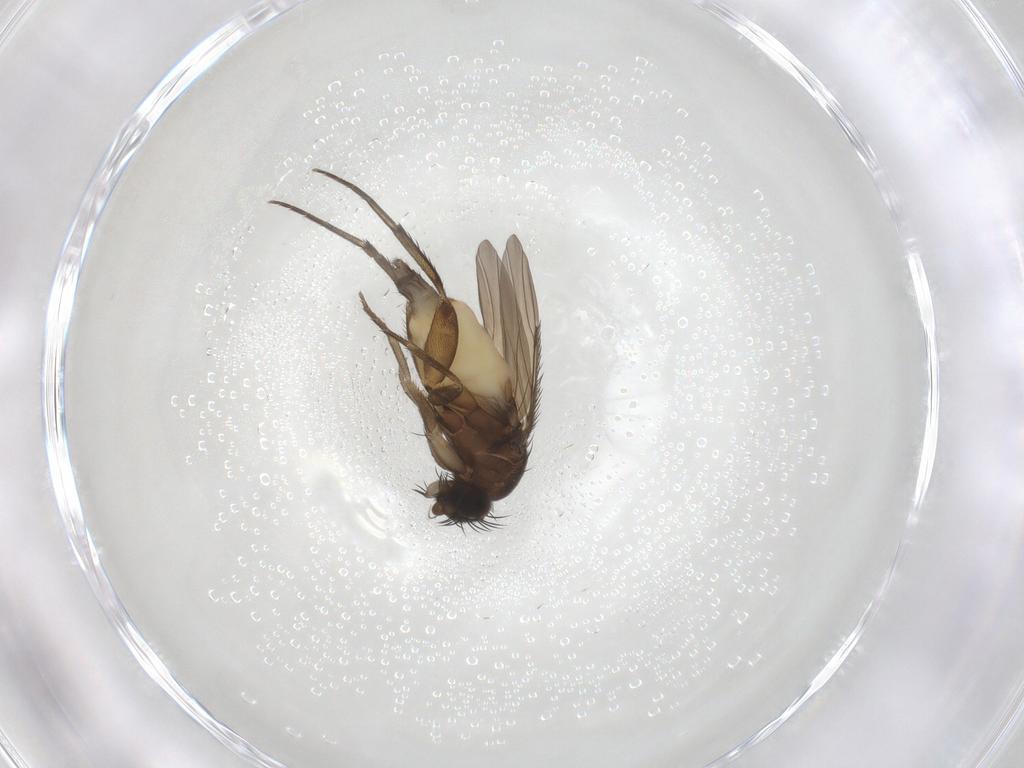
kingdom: Animalia
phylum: Arthropoda
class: Insecta
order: Diptera
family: Phoridae
